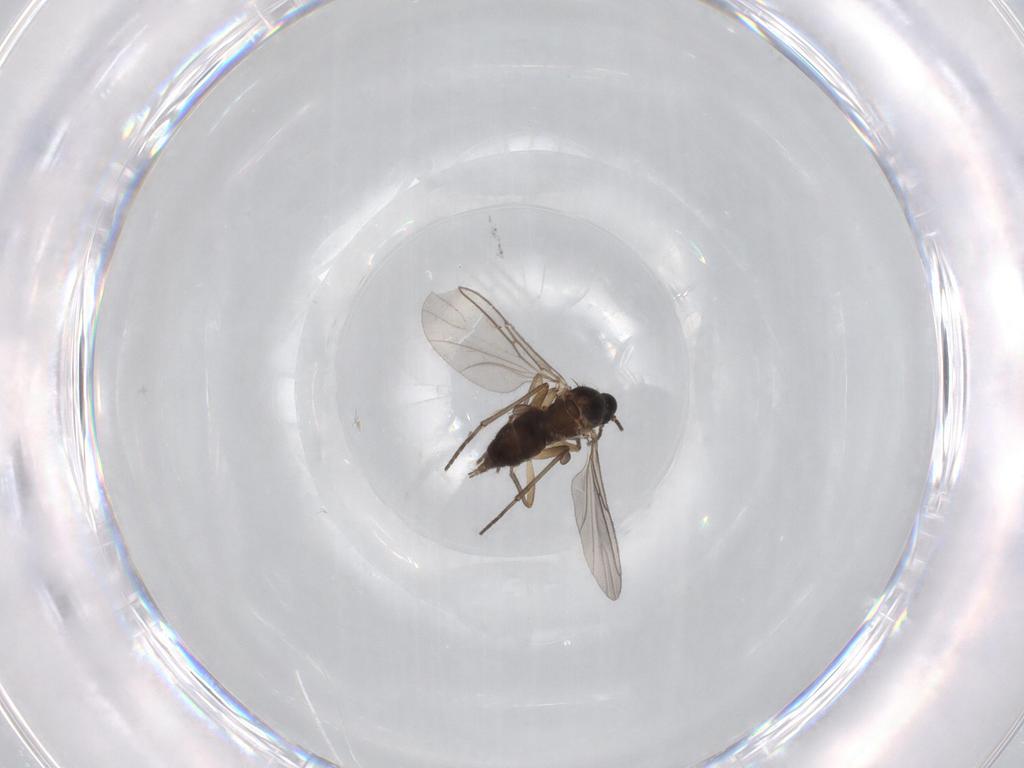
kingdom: Animalia
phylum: Arthropoda
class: Insecta
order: Diptera
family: Sciaridae
